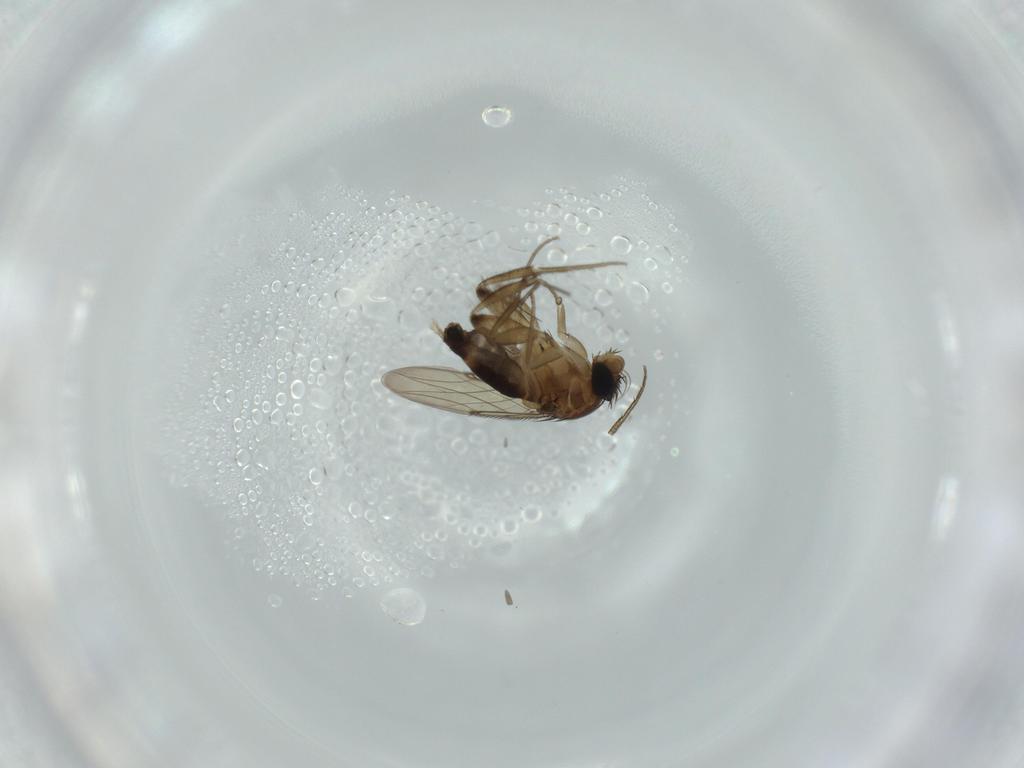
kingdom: Animalia
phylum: Arthropoda
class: Insecta
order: Diptera
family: Phoridae
